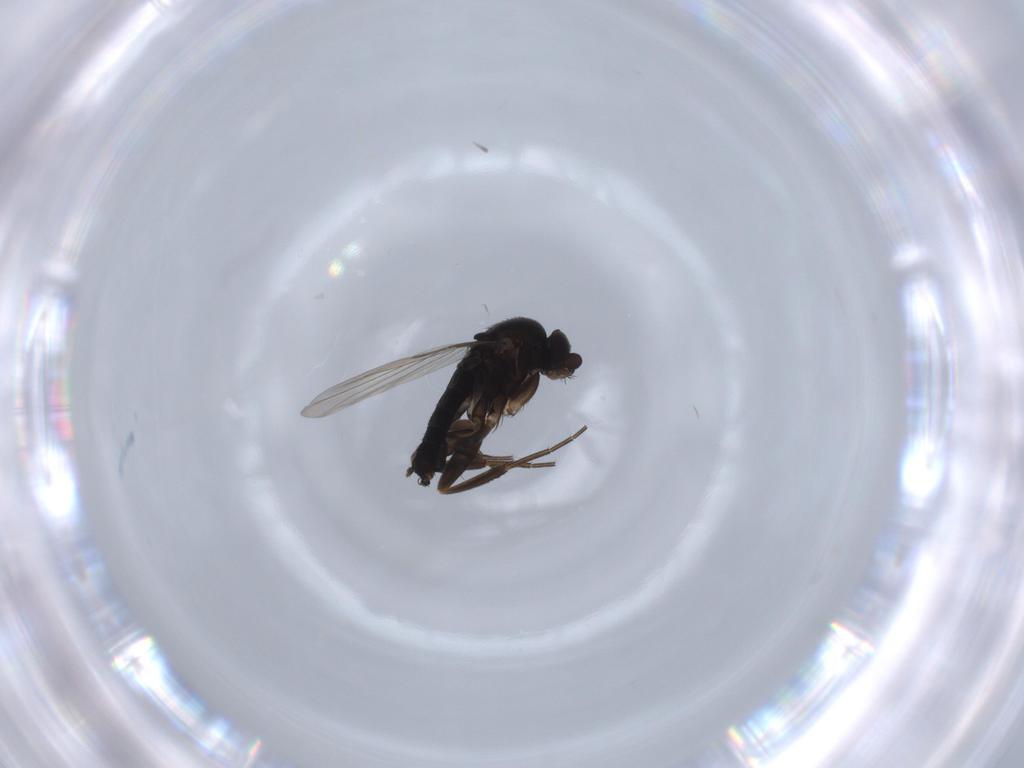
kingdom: Animalia
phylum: Arthropoda
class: Insecta
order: Diptera
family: Phoridae
